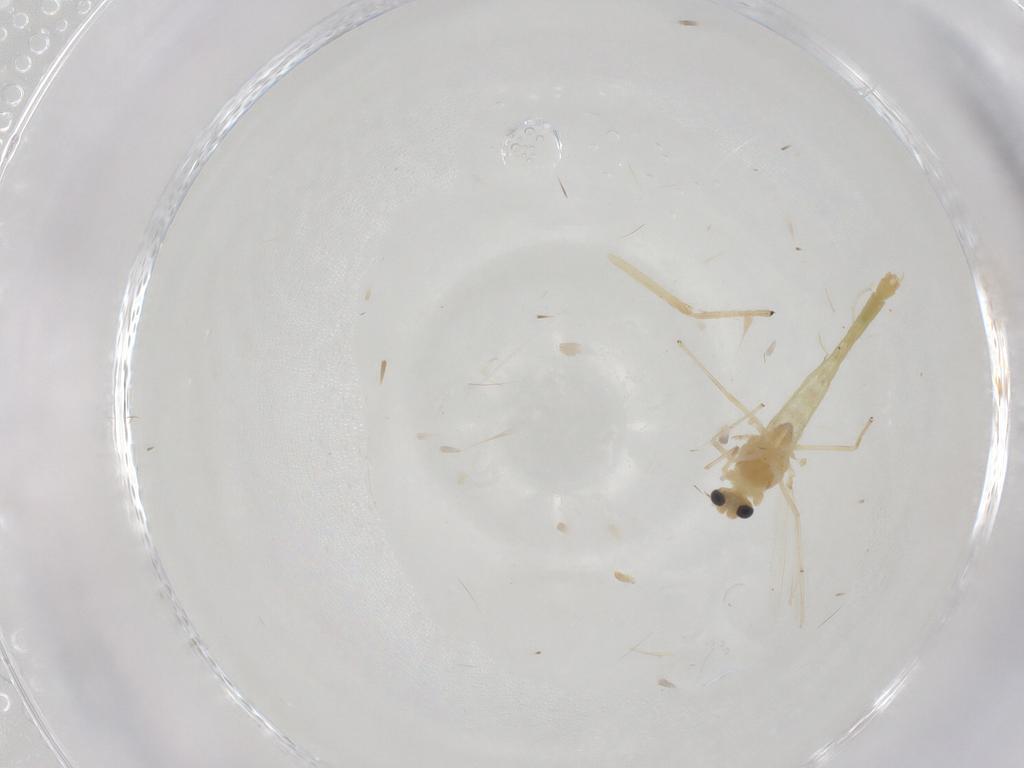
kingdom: Animalia
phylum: Arthropoda
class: Insecta
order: Diptera
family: Chironomidae
